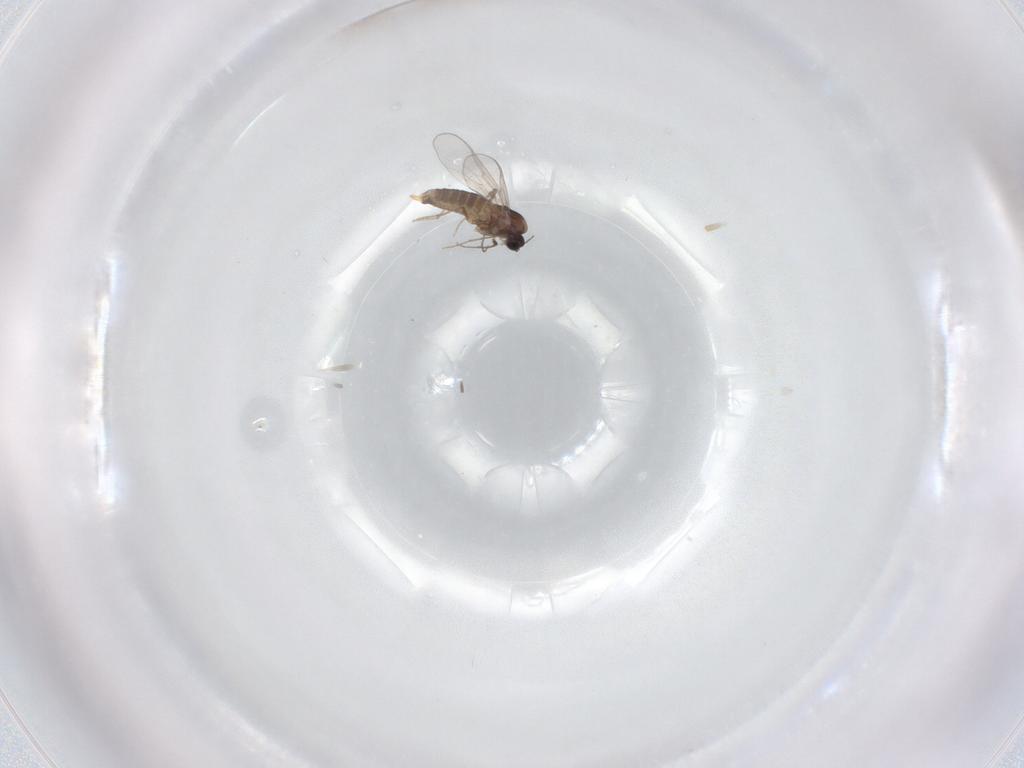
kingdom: Animalia
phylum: Arthropoda
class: Insecta
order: Diptera
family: Chironomidae
